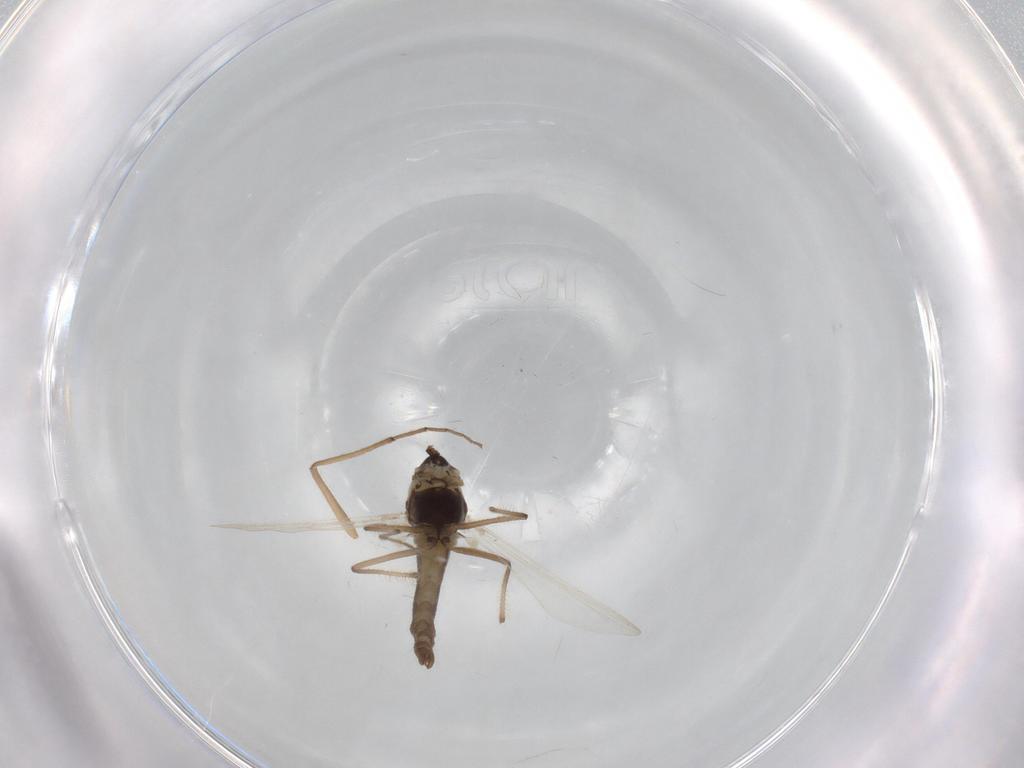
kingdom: Animalia
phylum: Arthropoda
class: Insecta
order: Diptera
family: Chironomidae
